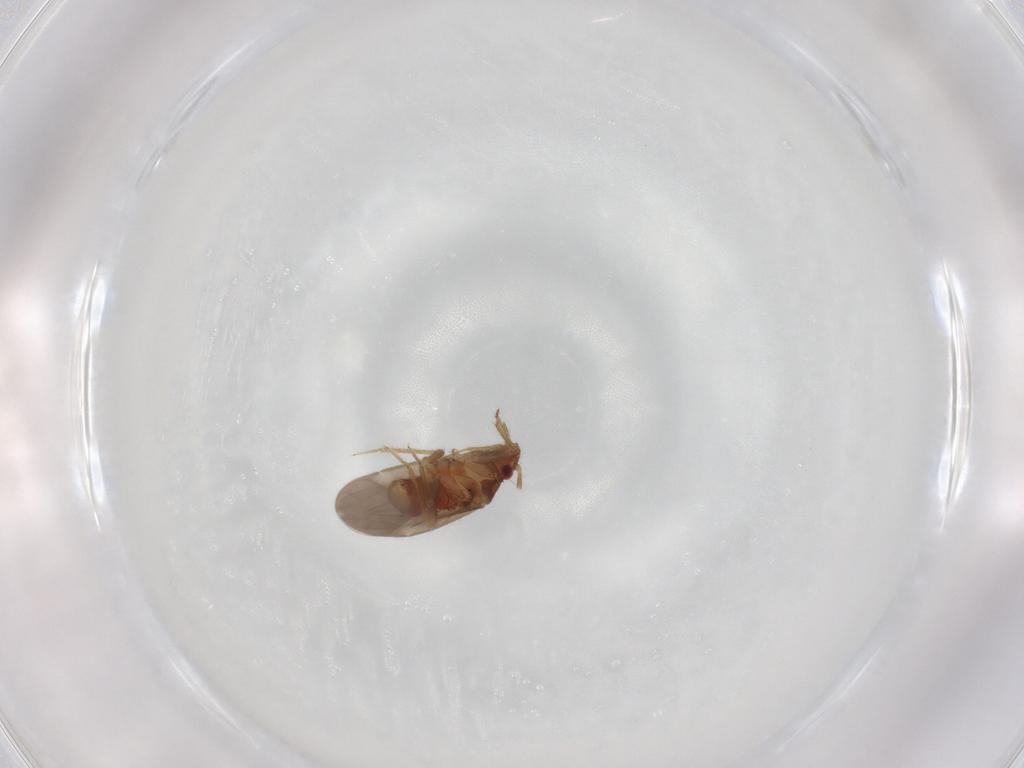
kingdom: Animalia
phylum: Arthropoda
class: Insecta
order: Hemiptera
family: Ceratocombidae
